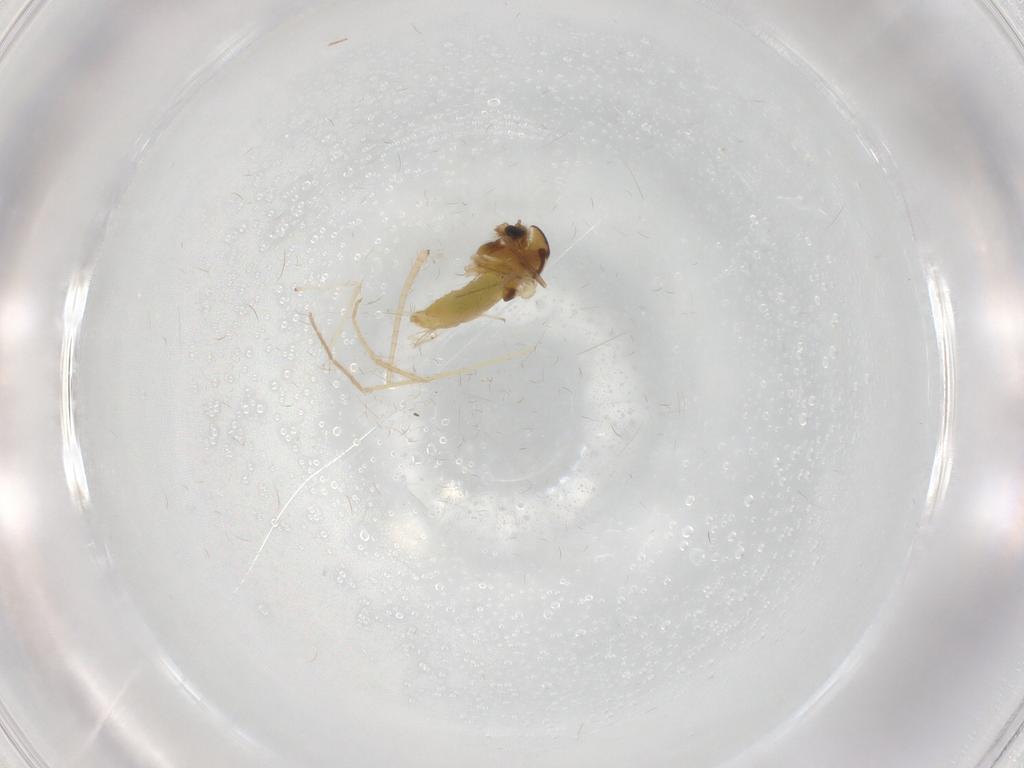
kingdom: Animalia
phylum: Arthropoda
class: Insecta
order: Diptera
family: Chironomidae
